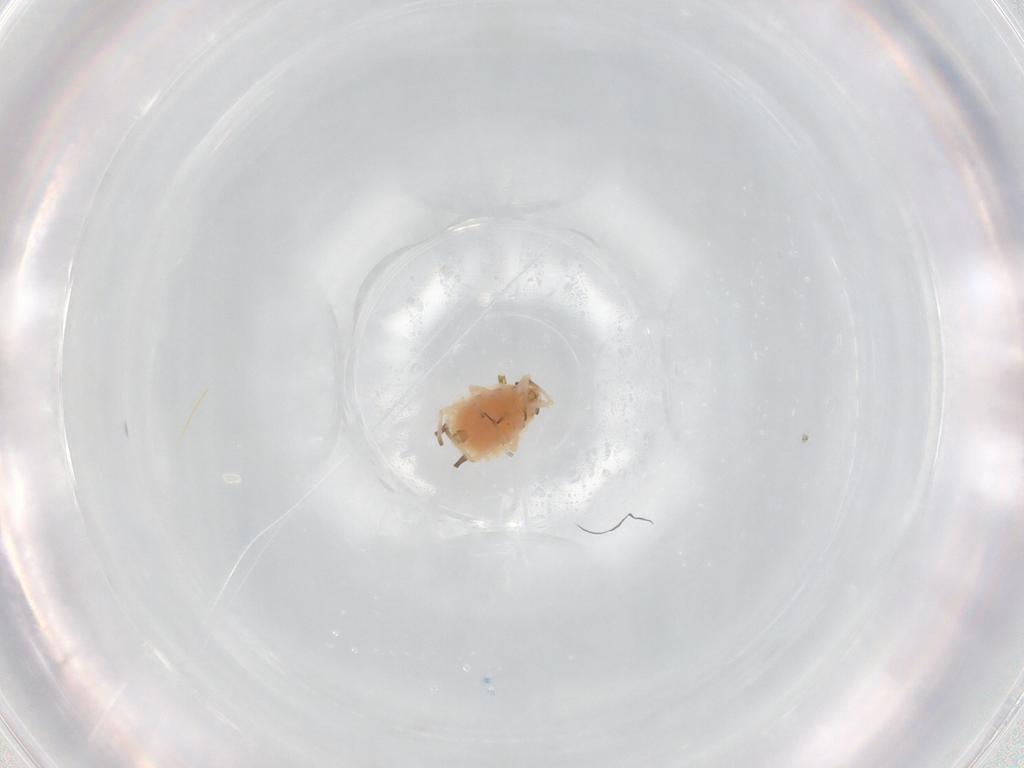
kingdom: Animalia
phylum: Arthropoda
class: Insecta
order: Hemiptera
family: Aphididae
